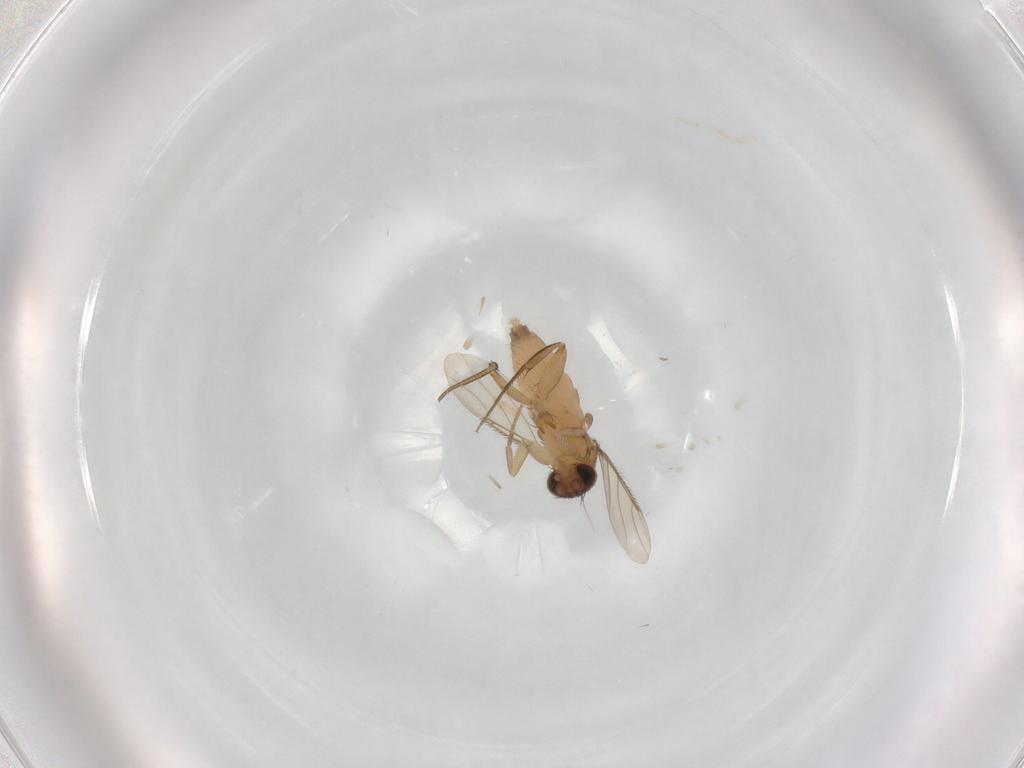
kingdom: Animalia
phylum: Arthropoda
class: Insecta
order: Diptera
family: Phoridae
